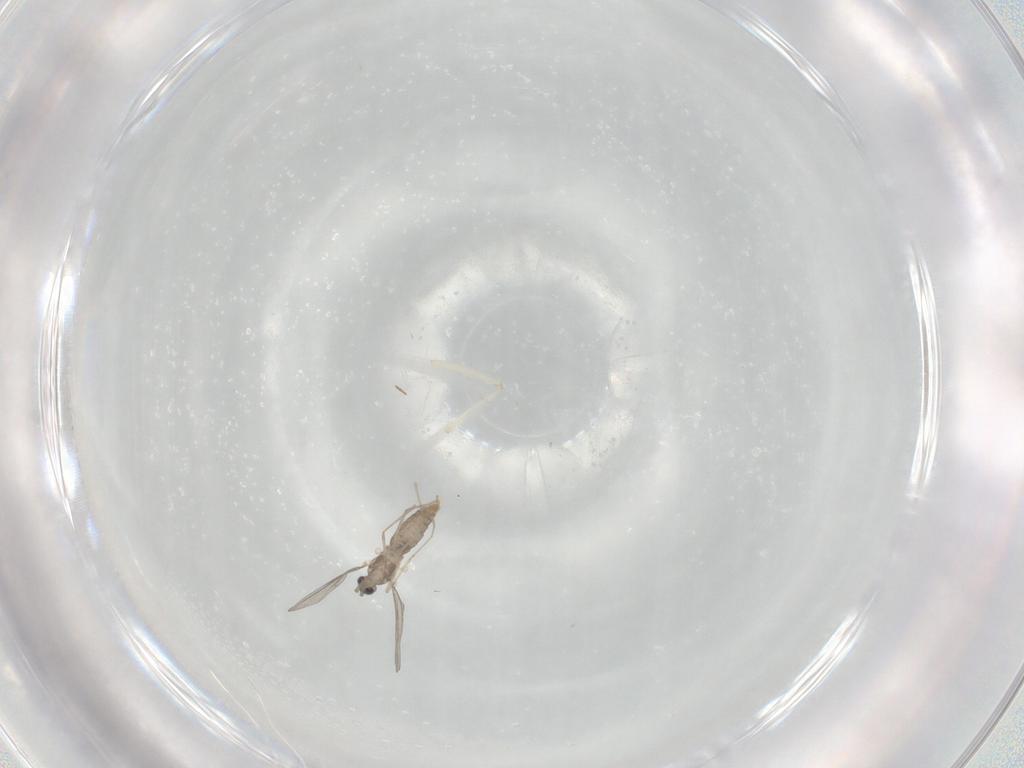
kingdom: Animalia
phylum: Arthropoda
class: Insecta
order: Diptera
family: Cecidomyiidae
